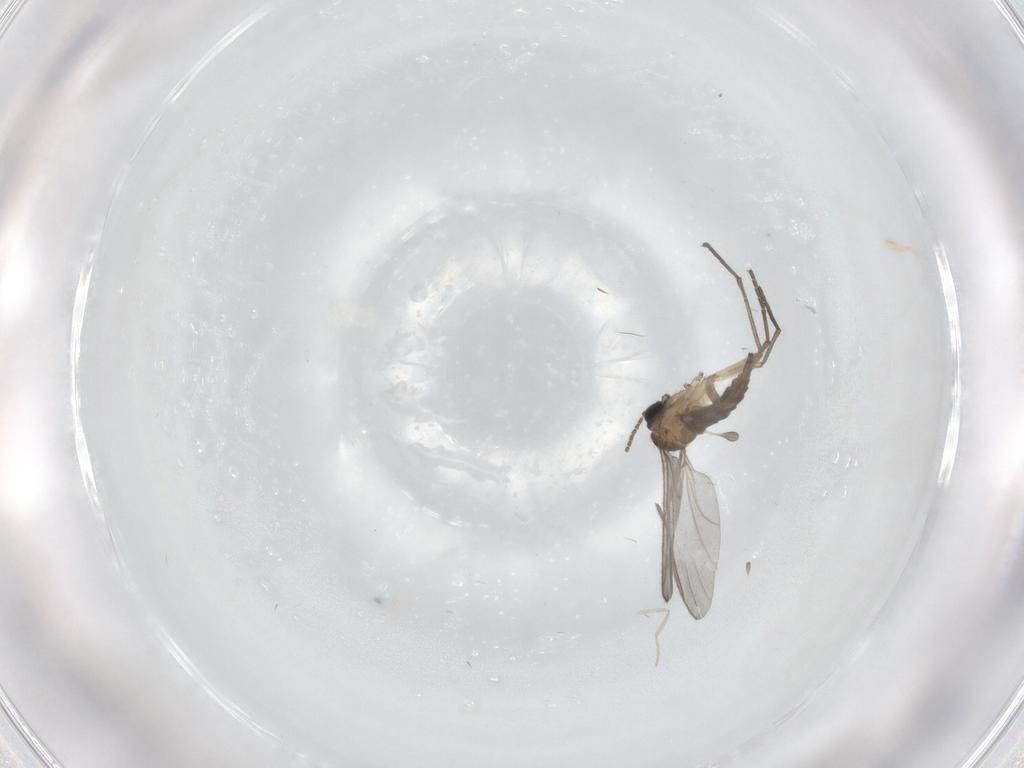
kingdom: Animalia
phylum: Arthropoda
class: Insecta
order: Diptera
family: Sciaridae
